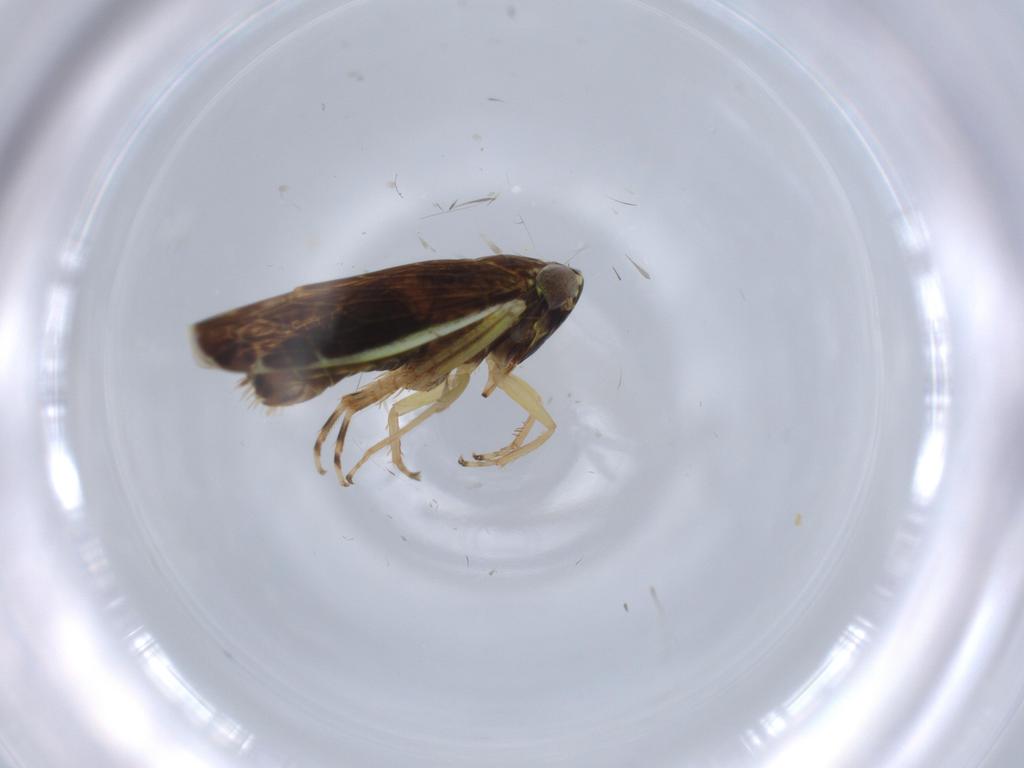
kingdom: Animalia
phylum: Arthropoda
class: Insecta
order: Hemiptera
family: Cicadellidae
